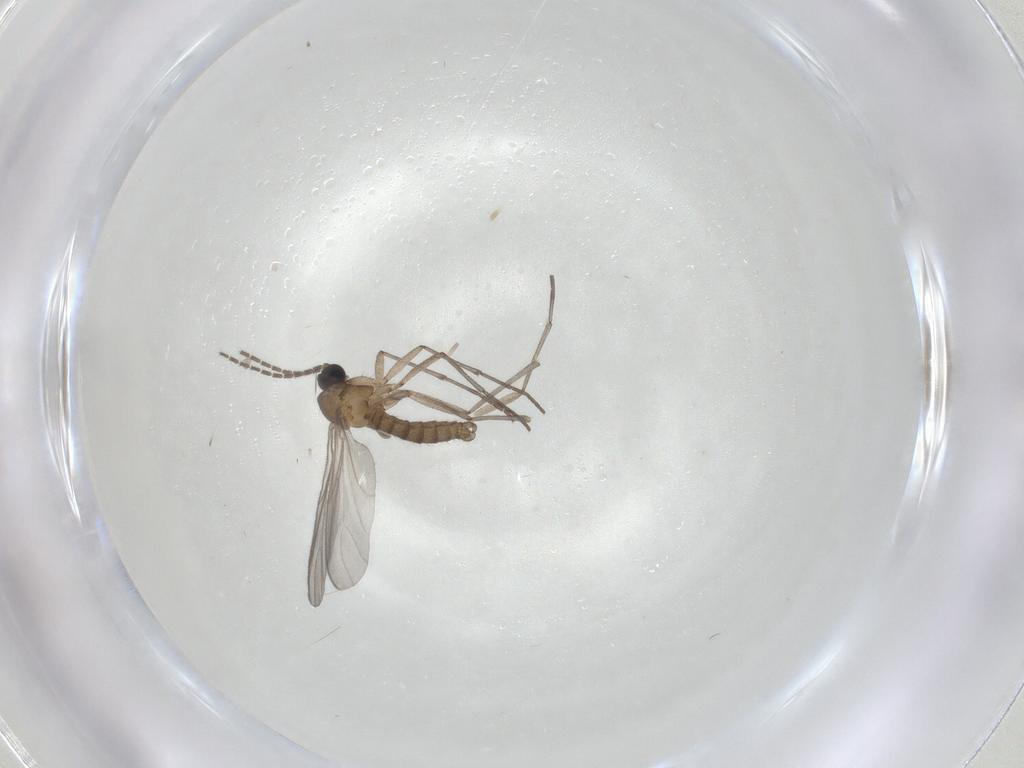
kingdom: Animalia
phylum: Arthropoda
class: Insecta
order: Diptera
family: Sciaridae
